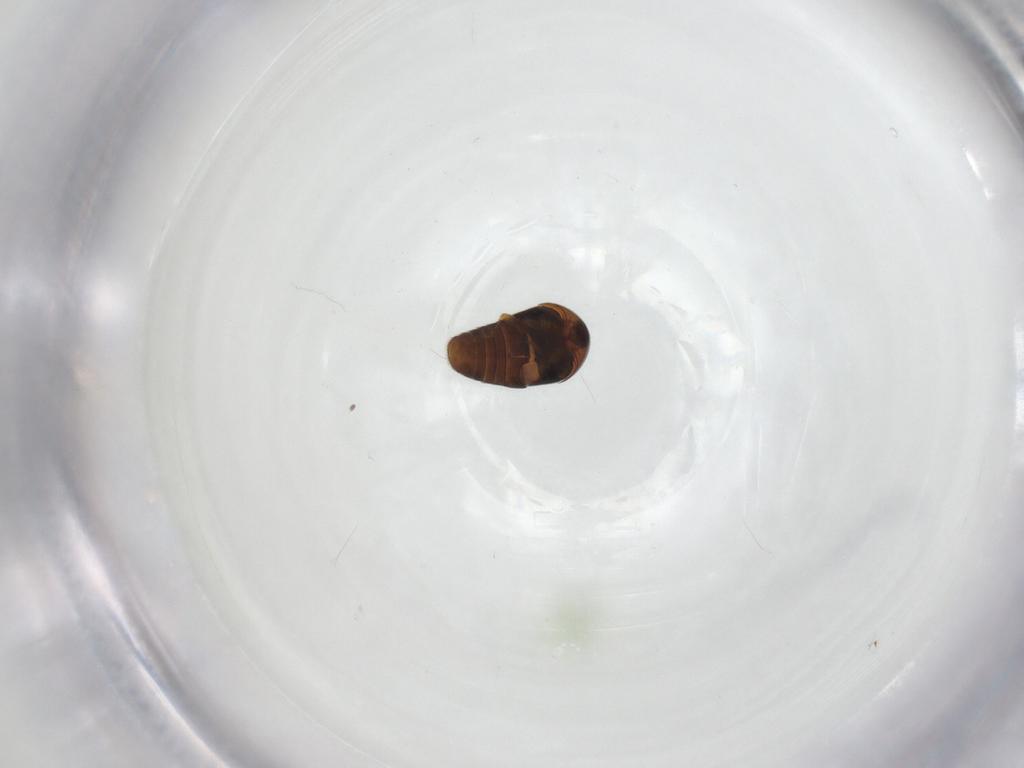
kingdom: Animalia
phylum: Arthropoda
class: Insecta
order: Coleoptera
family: Corylophidae
